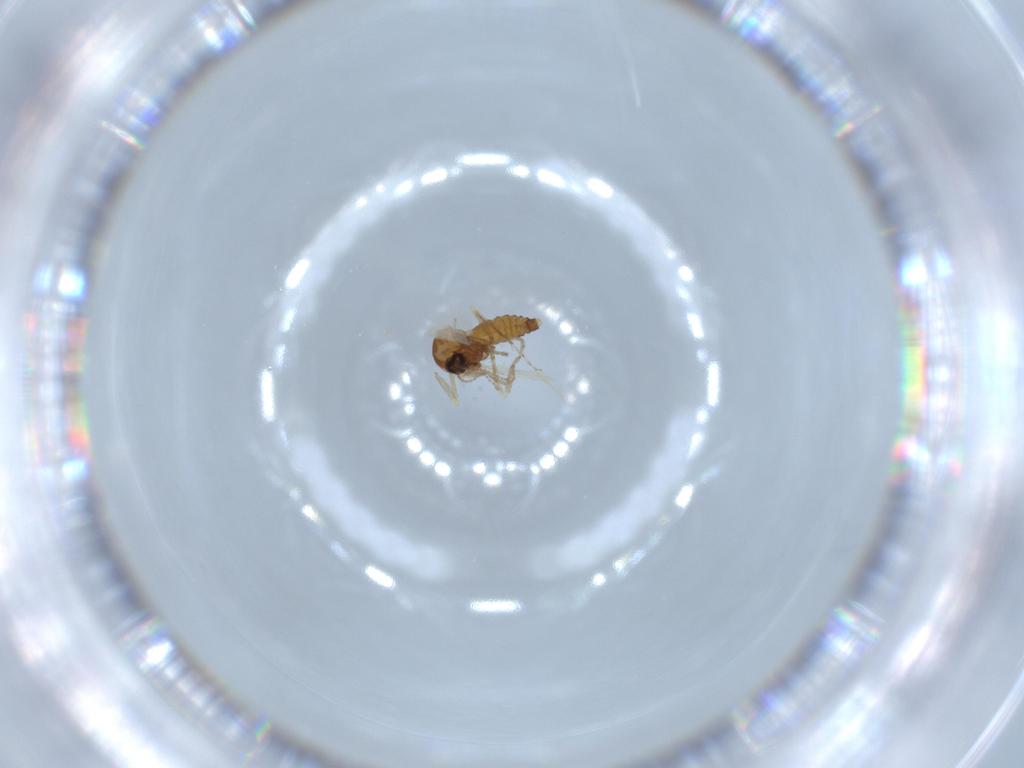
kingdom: Animalia
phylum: Arthropoda
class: Insecta
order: Diptera
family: Ceratopogonidae
